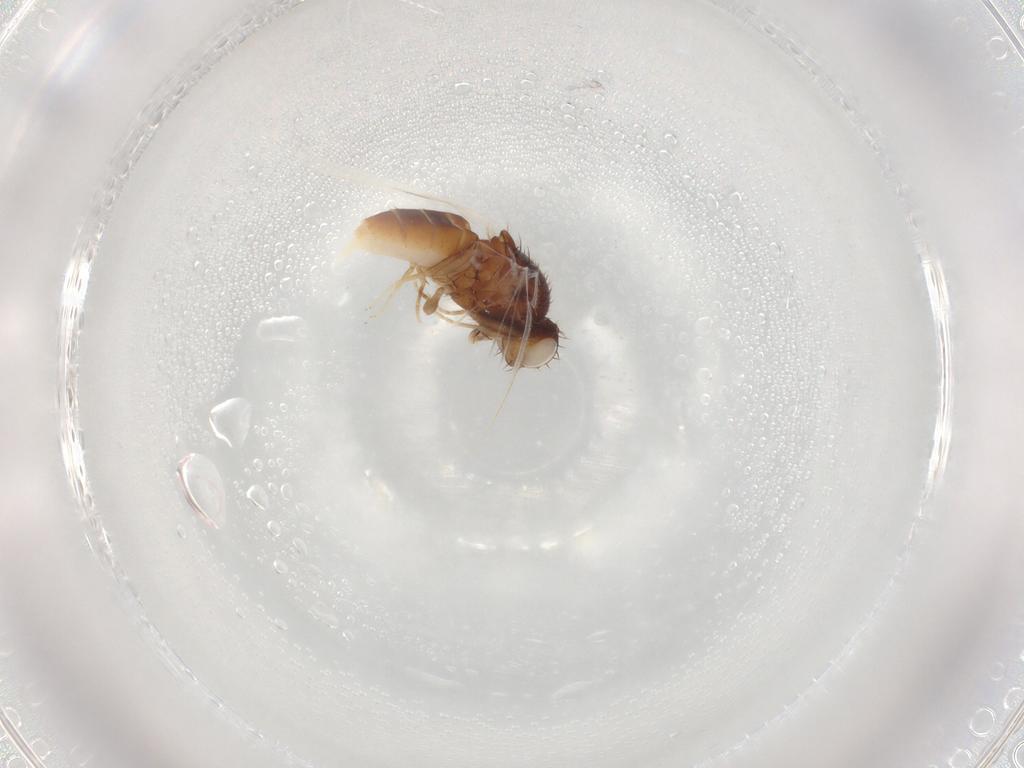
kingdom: Animalia
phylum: Arthropoda
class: Insecta
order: Diptera
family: Cecidomyiidae
